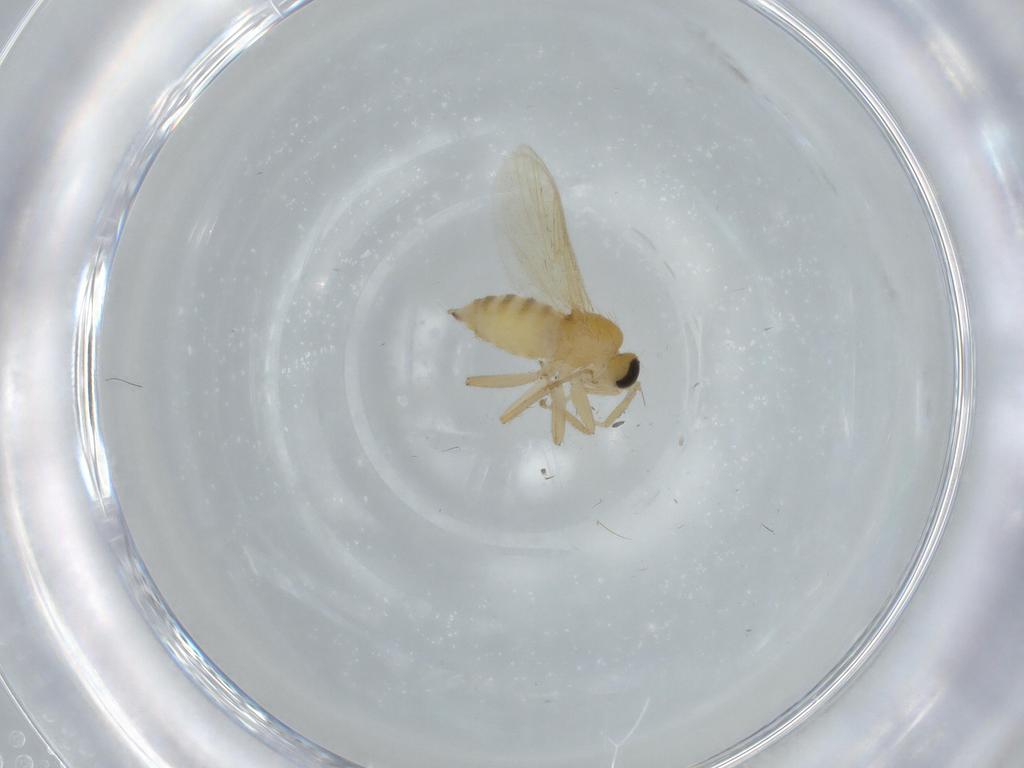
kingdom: Animalia
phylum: Arthropoda
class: Insecta
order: Diptera
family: Hybotidae
